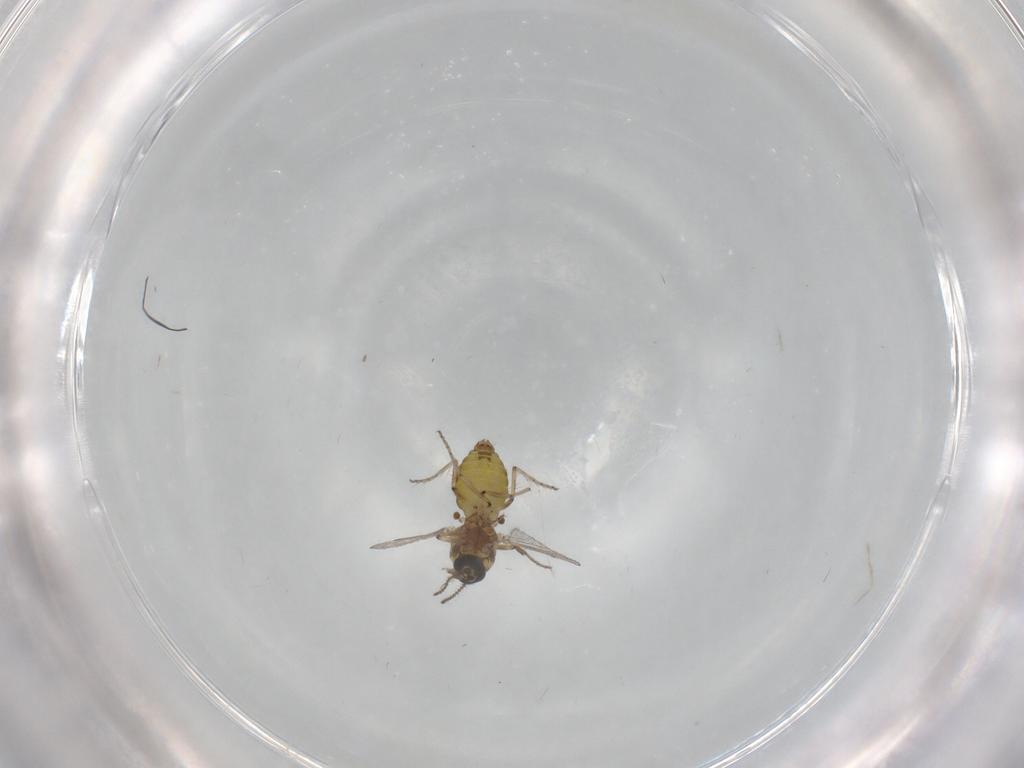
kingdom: Animalia
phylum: Arthropoda
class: Insecta
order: Diptera
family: Ceratopogonidae
